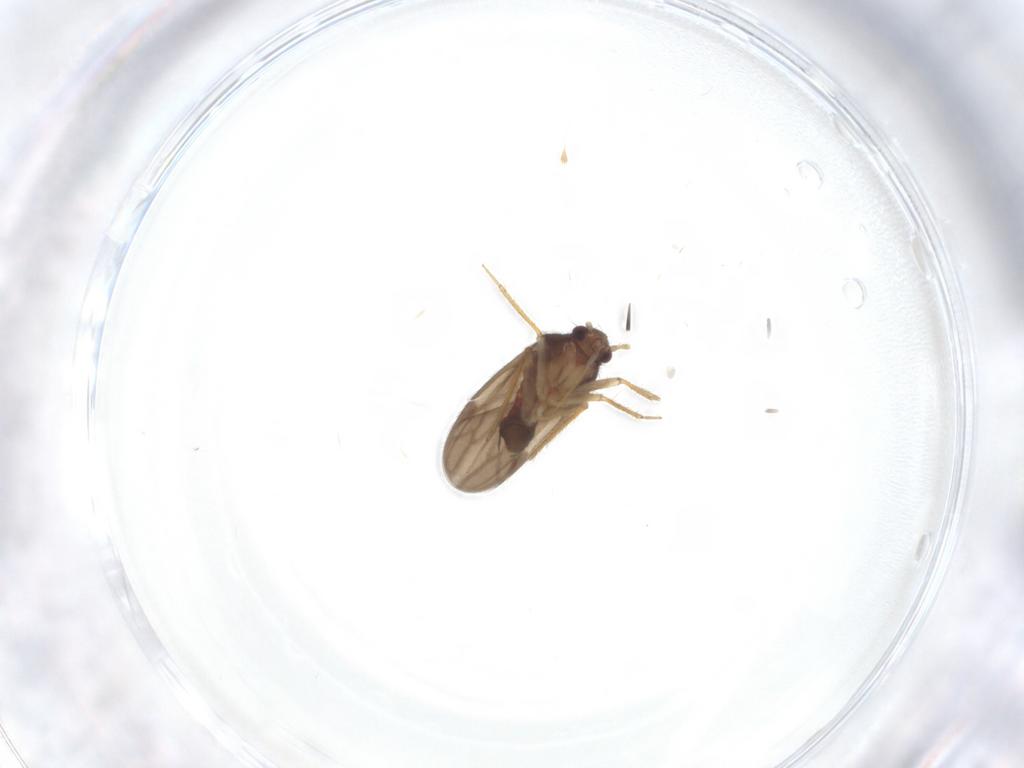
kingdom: Animalia
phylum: Arthropoda
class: Insecta
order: Hemiptera
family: Ceratocombidae
